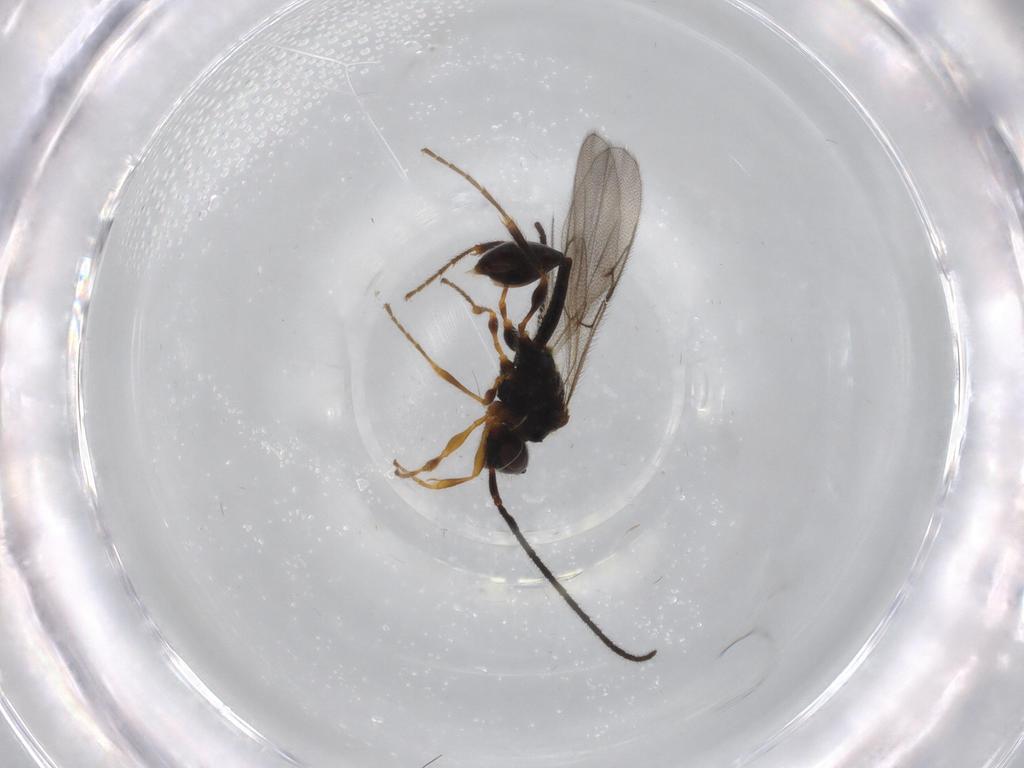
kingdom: Animalia
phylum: Arthropoda
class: Insecta
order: Hymenoptera
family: Diapriidae
